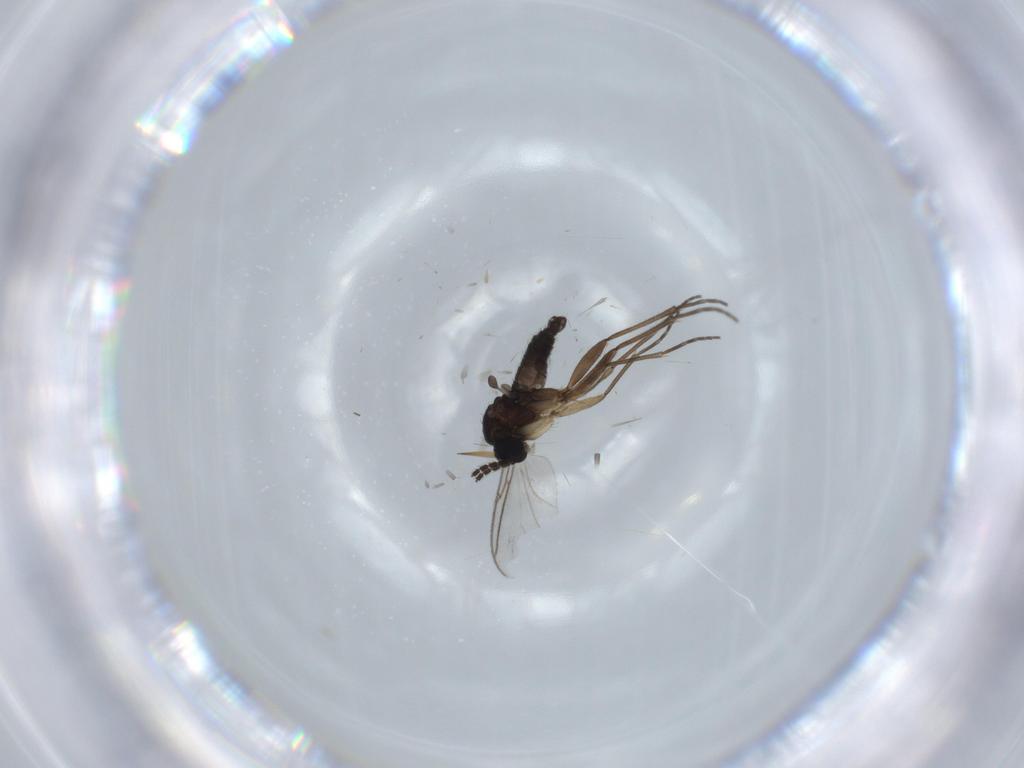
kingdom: Animalia
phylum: Arthropoda
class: Insecta
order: Diptera
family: Sciaridae
